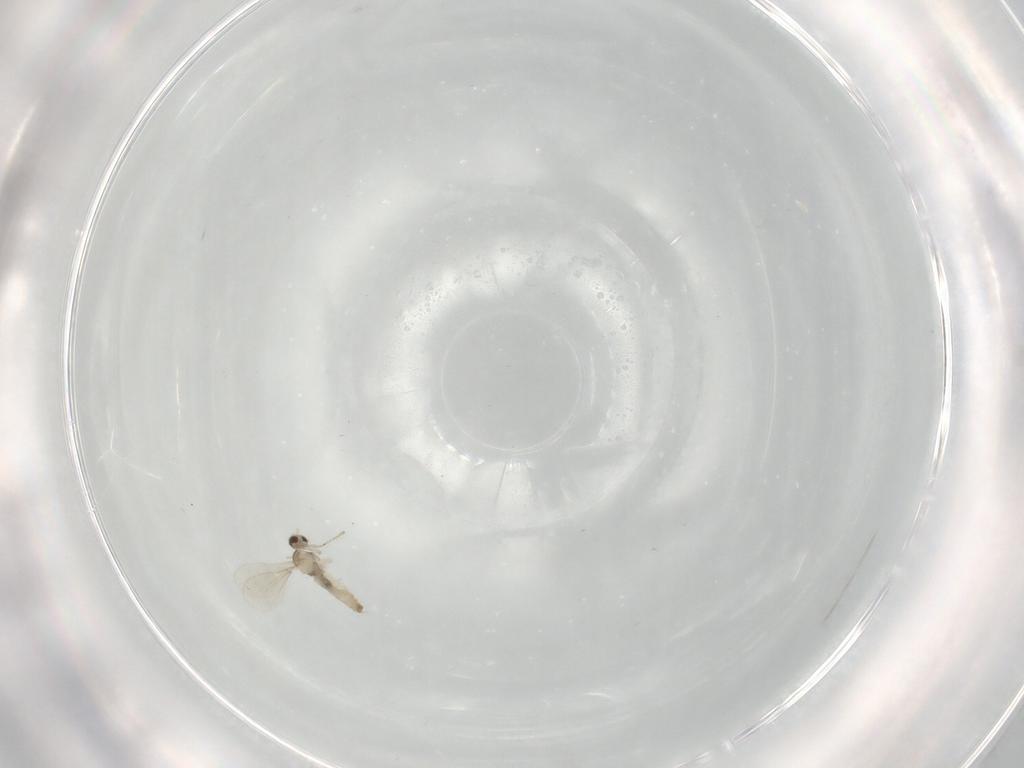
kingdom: Animalia
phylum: Arthropoda
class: Insecta
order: Diptera
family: Cecidomyiidae
